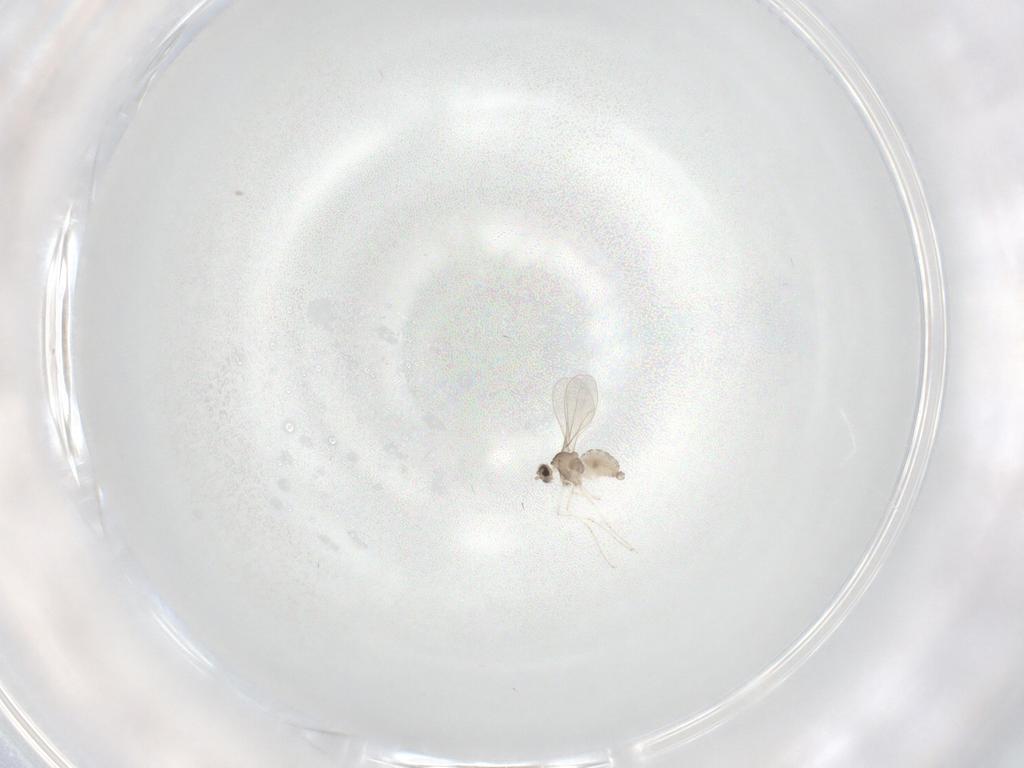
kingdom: Animalia
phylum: Arthropoda
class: Insecta
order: Diptera
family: Cecidomyiidae
